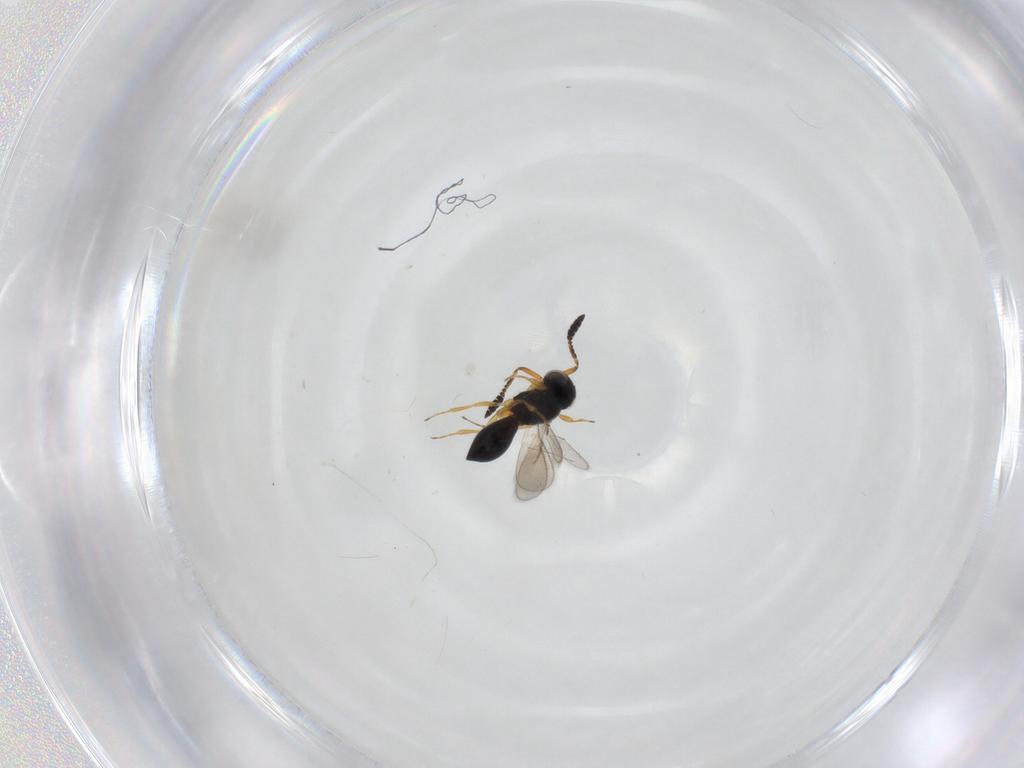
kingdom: Animalia
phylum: Arthropoda
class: Insecta
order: Hymenoptera
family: Scelionidae
